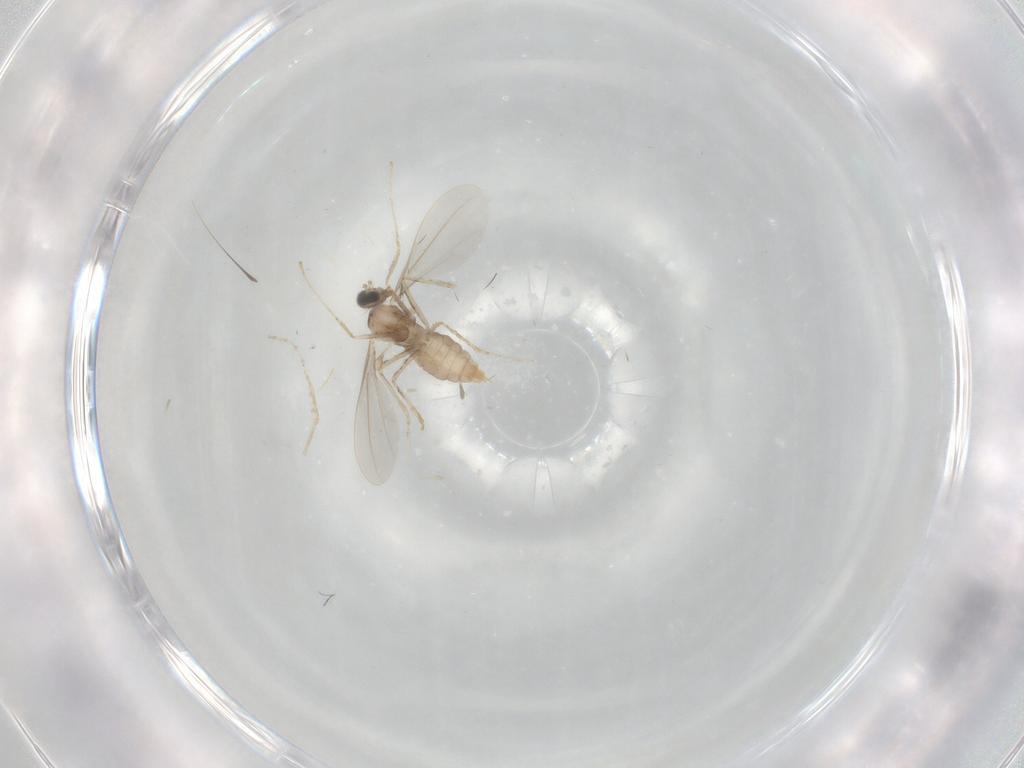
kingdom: Animalia
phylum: Arthropoda
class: Insecta
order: Diptera
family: Cecidomyiidae
